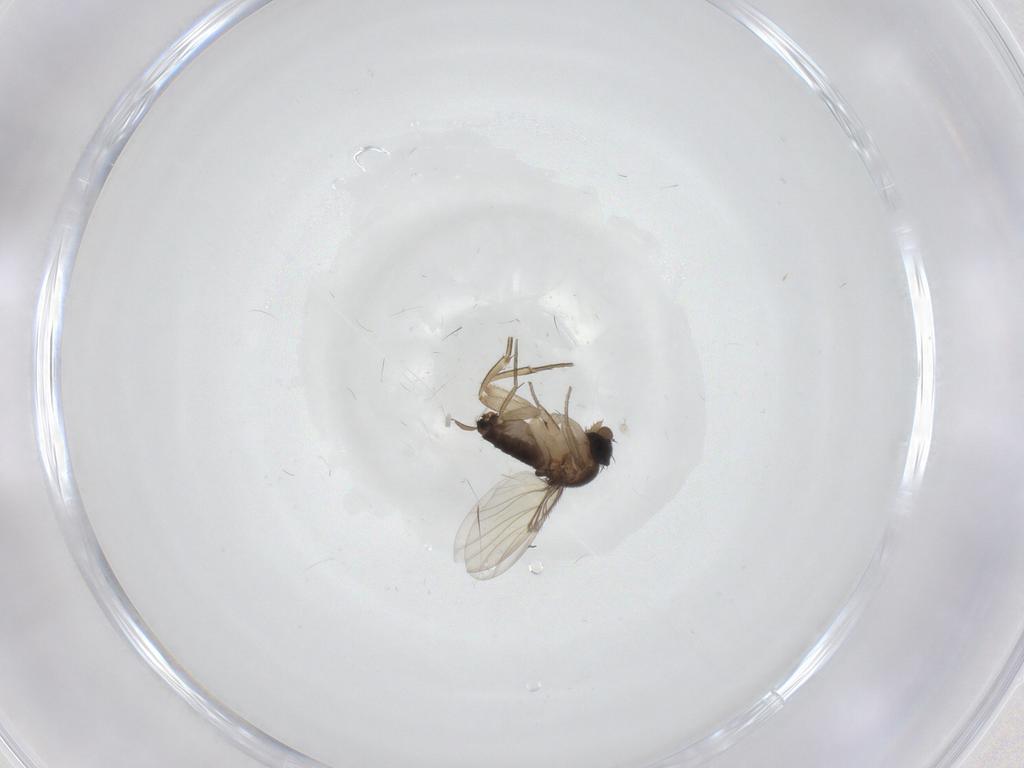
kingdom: Animalia
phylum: Arthropoda
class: Insecta
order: Diptera
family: Phoridae
